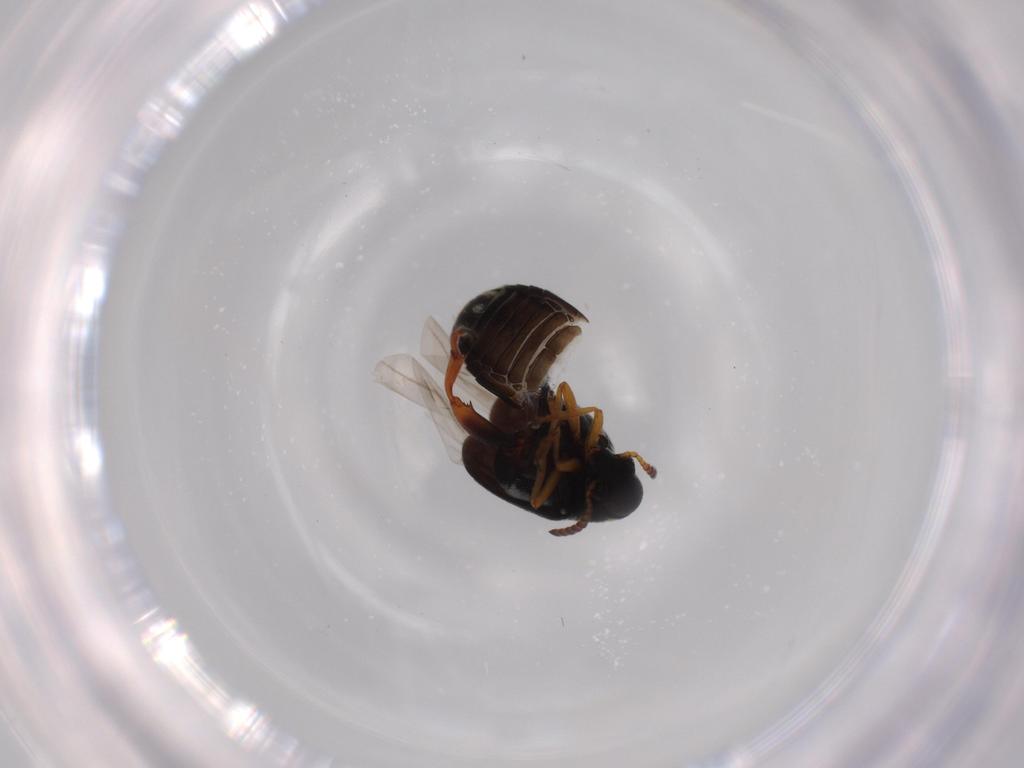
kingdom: Animalia
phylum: Arthropoda
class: Insecta
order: Coleoptera
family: Chrysomelidae
